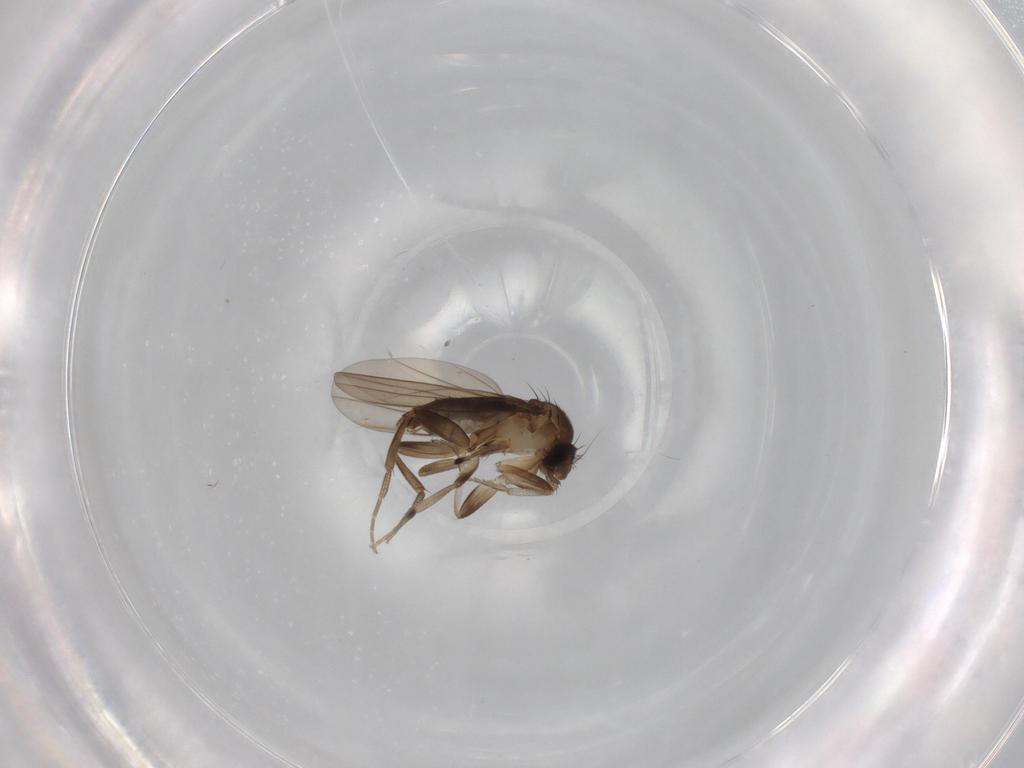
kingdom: Animalia
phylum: Arthropoda
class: Insecta
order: Diptera
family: Phoridae
